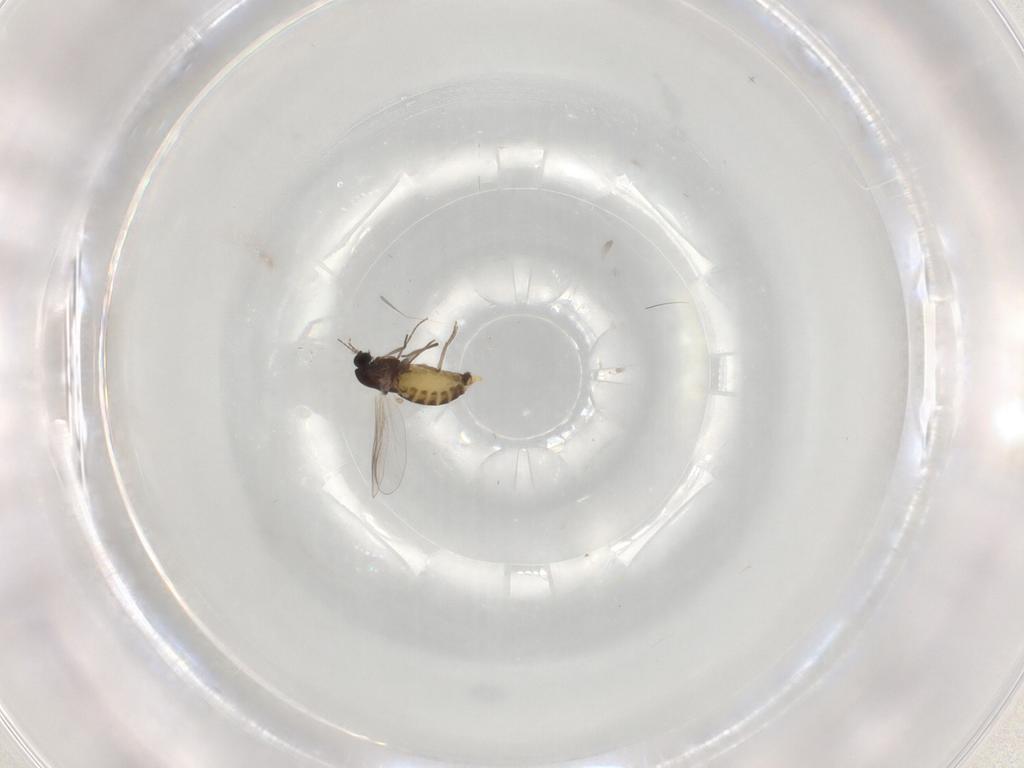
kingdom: Animalia
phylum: Arthropoda
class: Insecta
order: Diptera
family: Chironomidae
